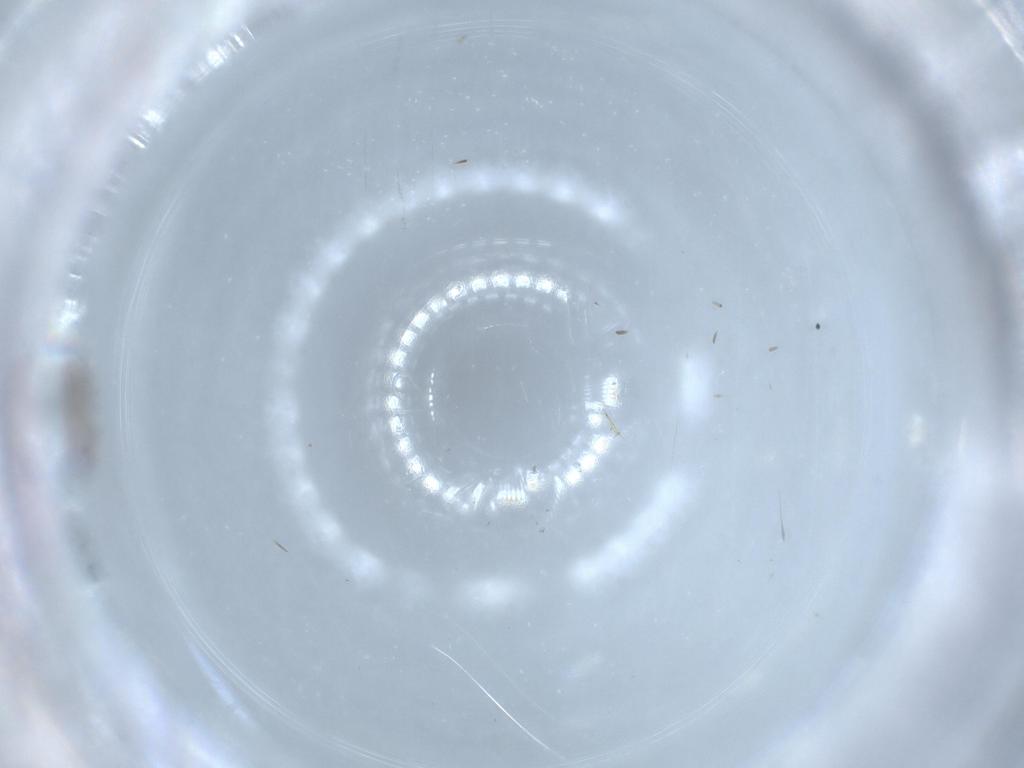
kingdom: Animalia
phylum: Arthropoda
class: Insecta
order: Diptera
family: Sciaridae
